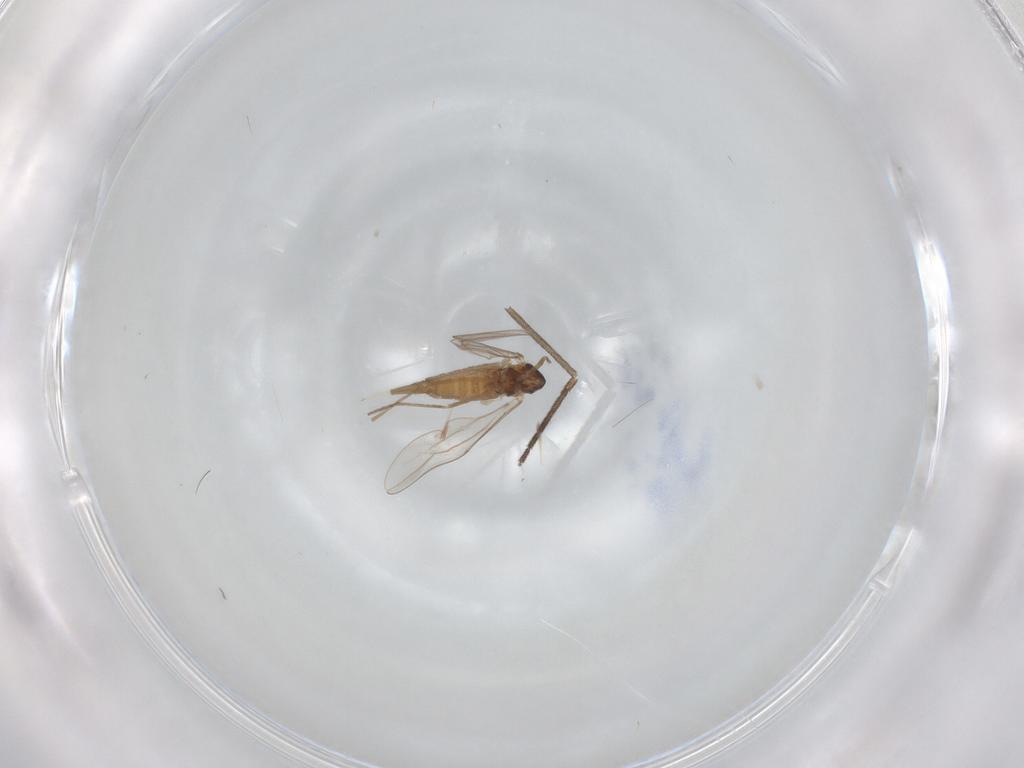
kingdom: Animalia
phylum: Arthropoda
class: Insecta
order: Diptera
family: Cecidomyiidae
